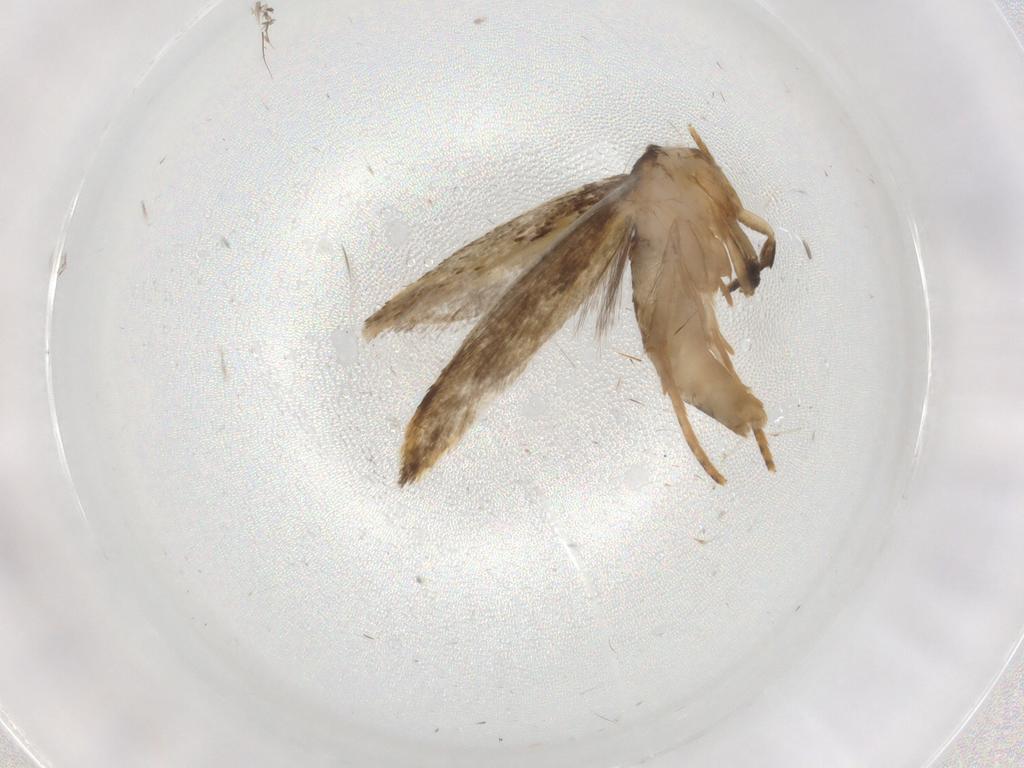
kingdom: Animalia
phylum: Arthropoda
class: Insecta
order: Lepidoptera
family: Tineidae
